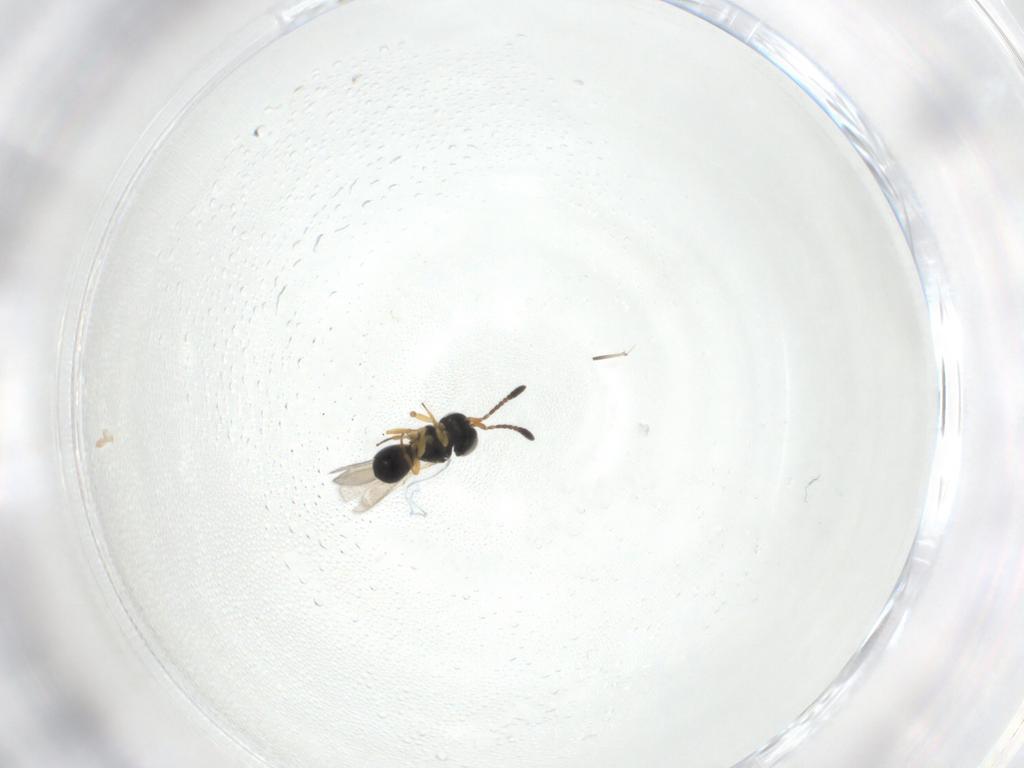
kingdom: Animalia
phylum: Arthropoda
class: Insecta
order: Hymenoptera
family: Scelionidae
